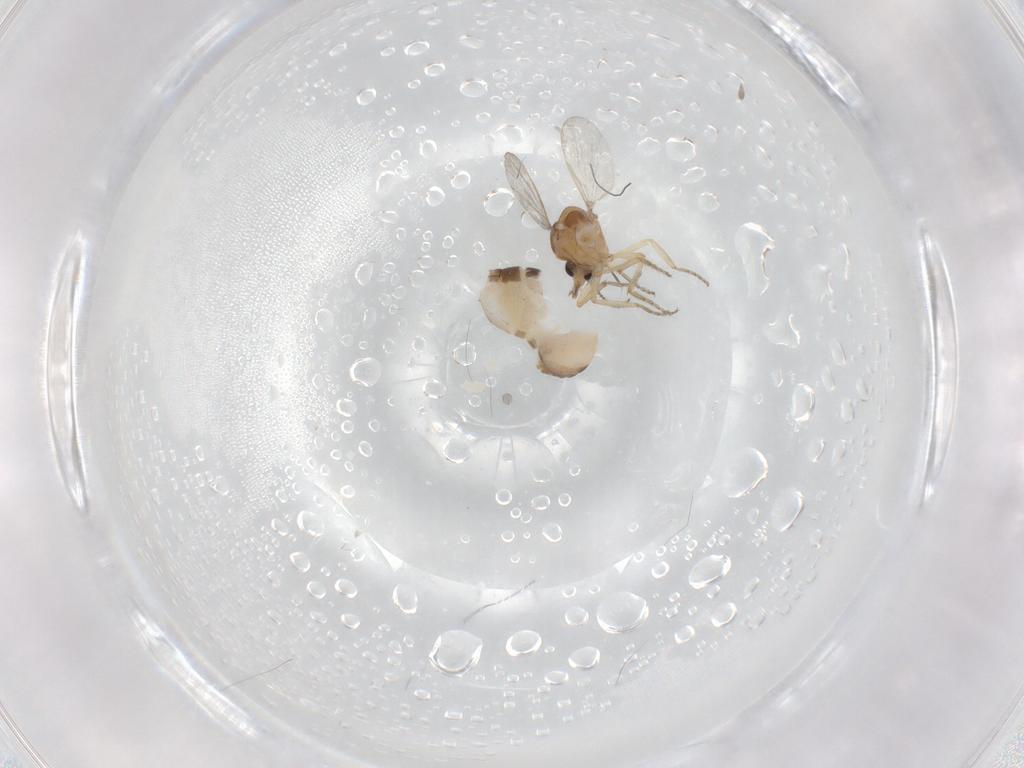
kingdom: Animalia
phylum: Arthropoda
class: Insecta
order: Diptera
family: Ceratopogonidae
